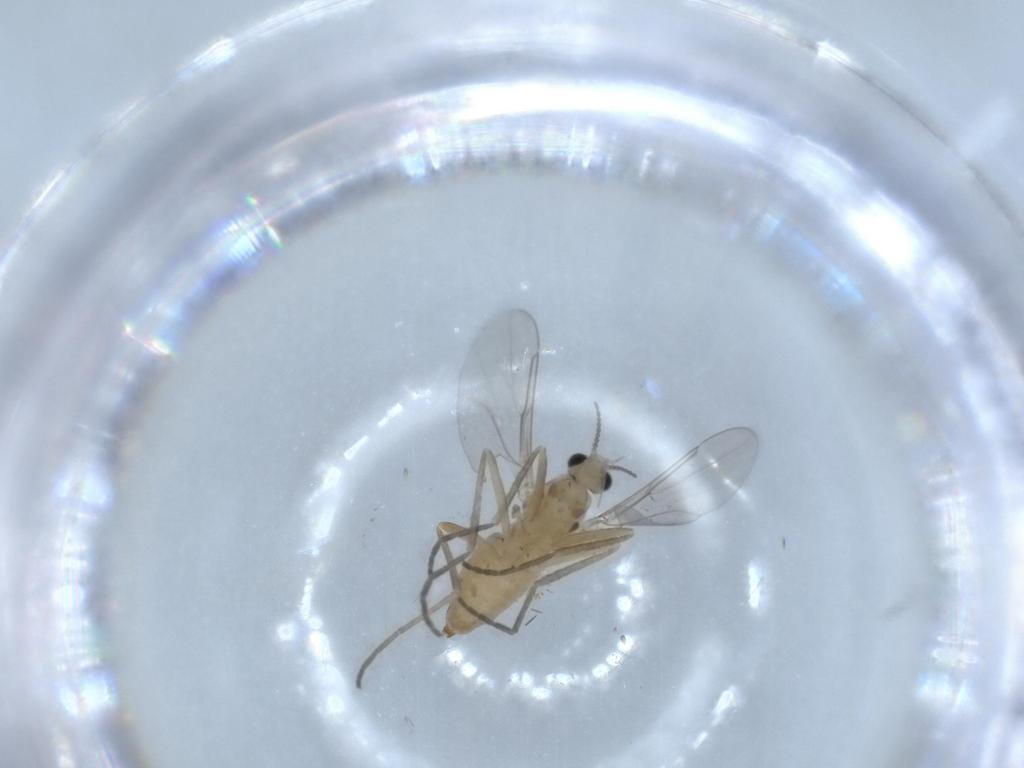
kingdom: Animalia
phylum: Arthropoda
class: Insecta
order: Diptera
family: Cecidomyiidae
